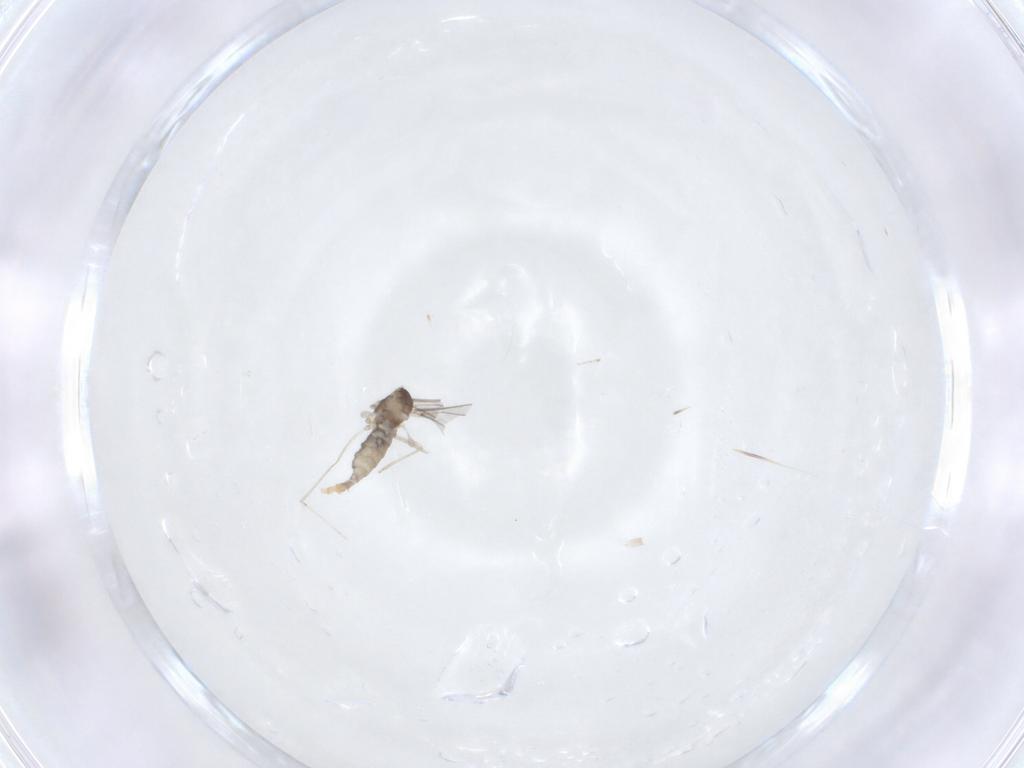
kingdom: Animalia
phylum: Arthropoda
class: Insecta
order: Diptera
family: Cecidomyiidae
